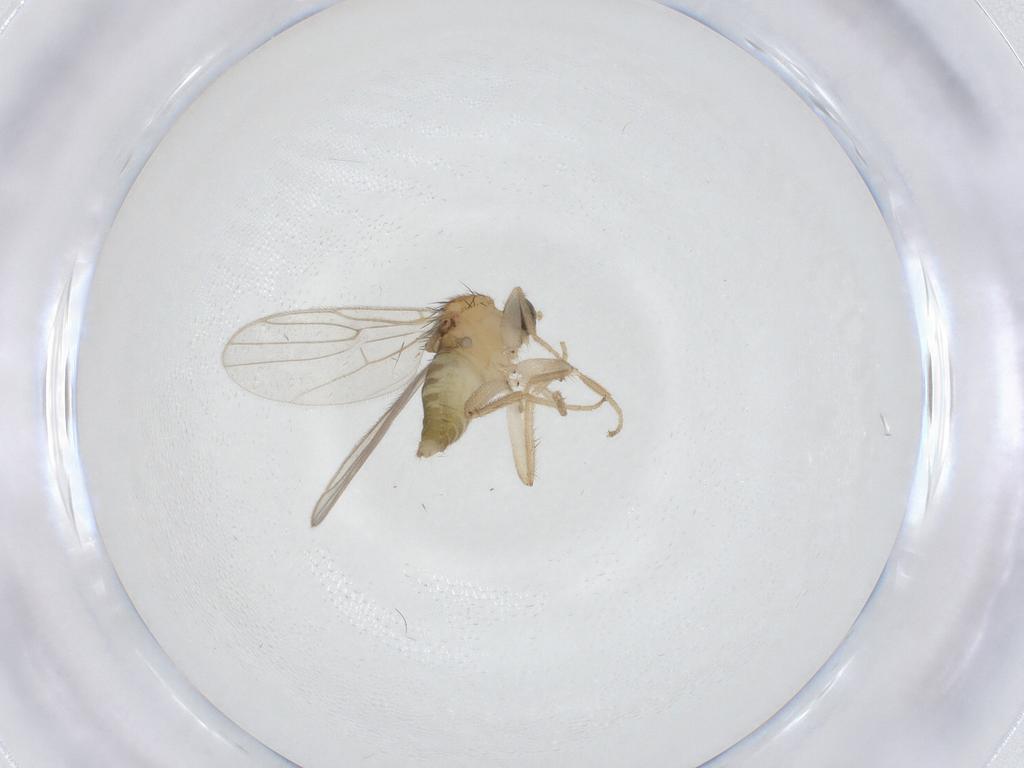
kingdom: Animalia
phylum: Arthropoda
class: Insecta
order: Diptera
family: Hybotidae
